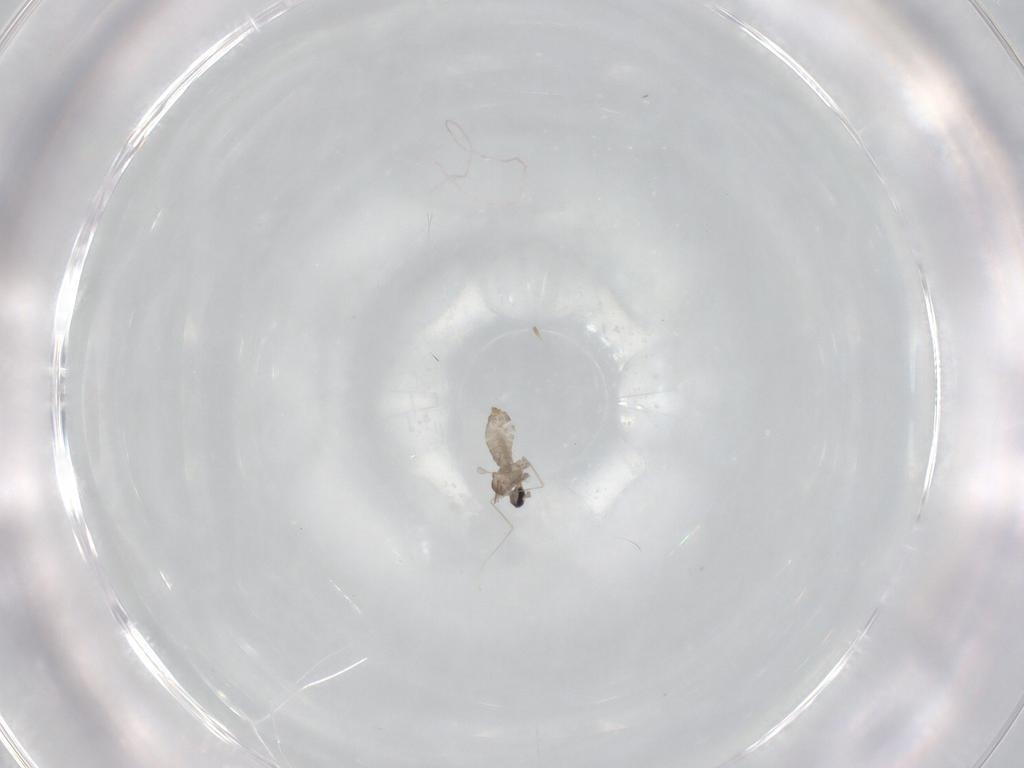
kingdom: Animalia
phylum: Arthropoda
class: Insecta
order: Diptera
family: Cecidomyiidae
